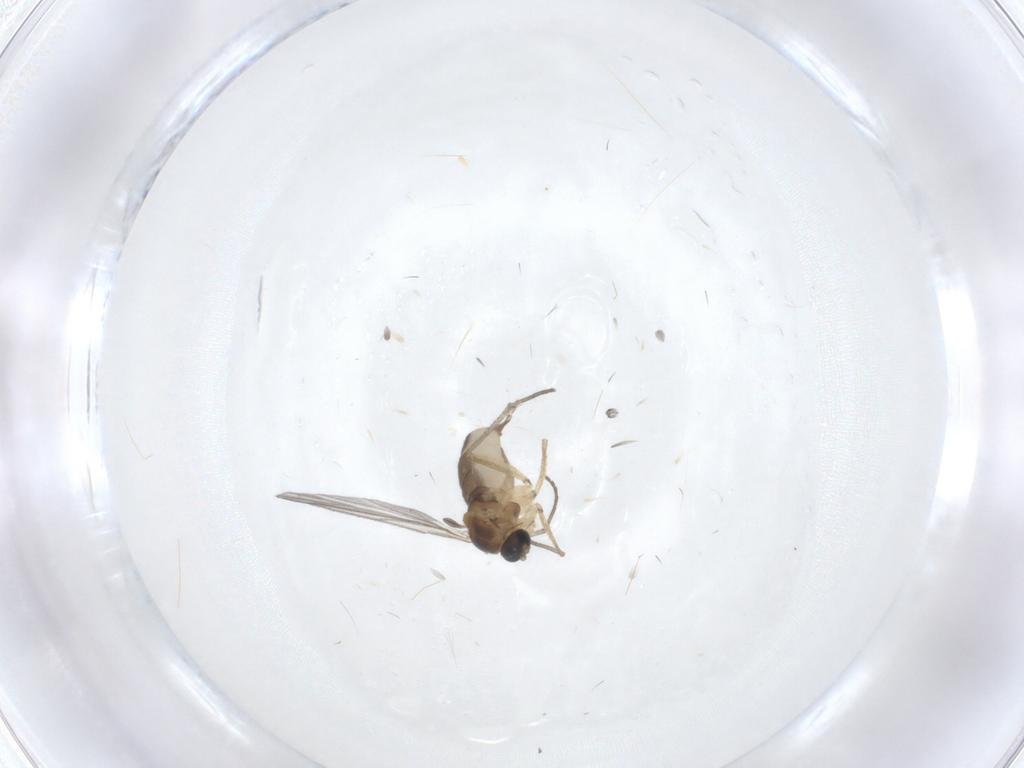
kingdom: Animalia
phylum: Arthropoda
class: Insecta
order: Diptera
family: Sciaridae
